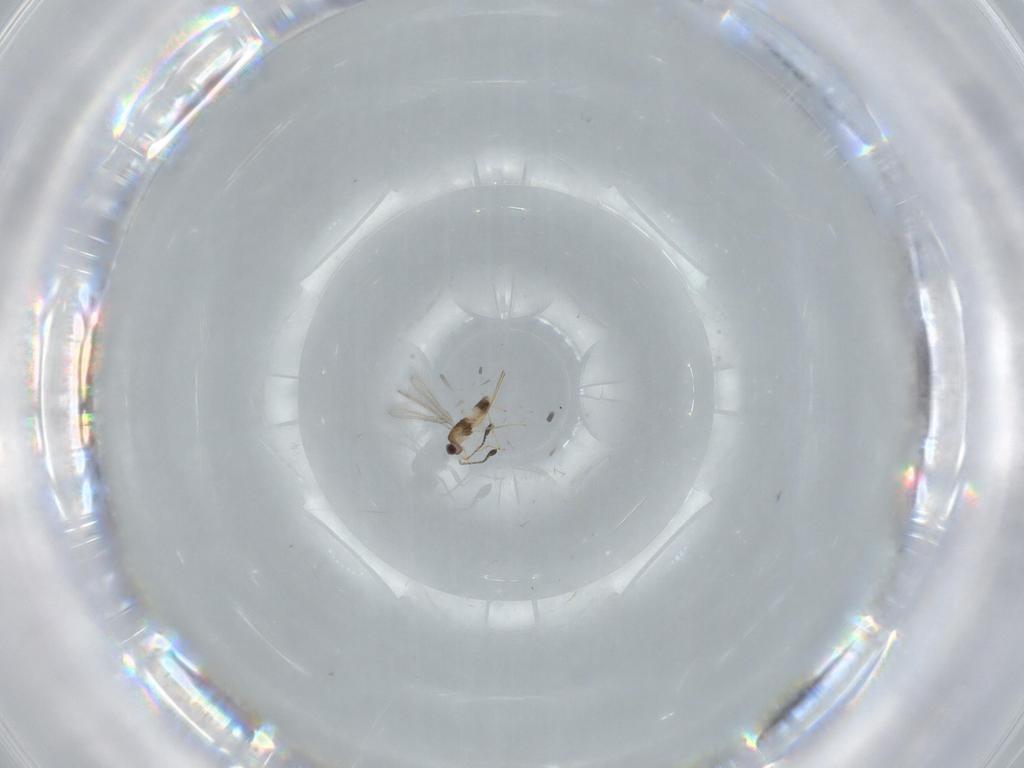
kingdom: Animalia
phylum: Arthropoda
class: Insecta
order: Hymenoptera
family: Mymaridae
